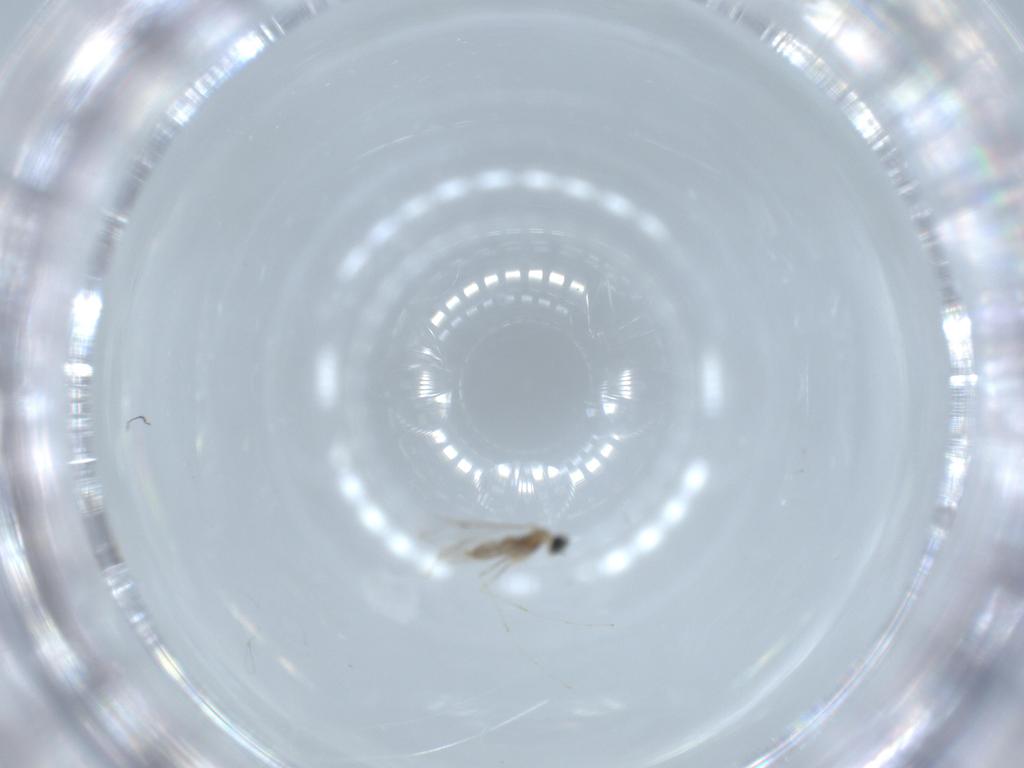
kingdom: Animalia
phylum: Arthropoda
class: Insecta
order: Diptera
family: Cecidomyiidae
